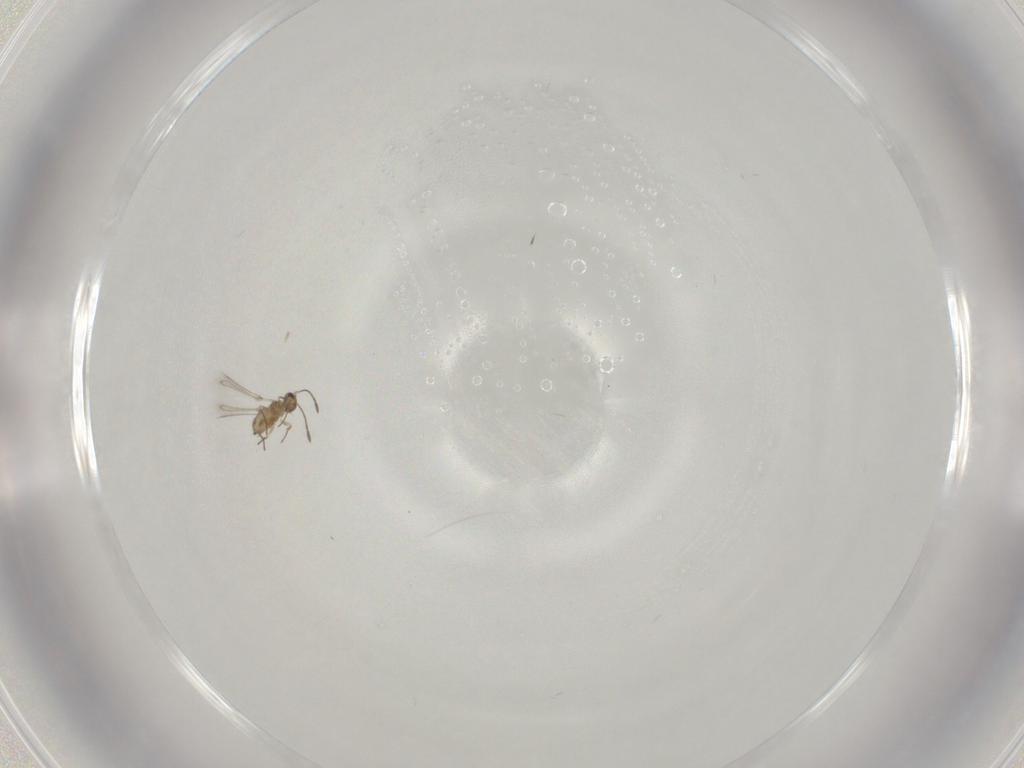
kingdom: Animalia
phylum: Arthropoda
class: Insecta
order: Hymenoptera
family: Mymaridae
